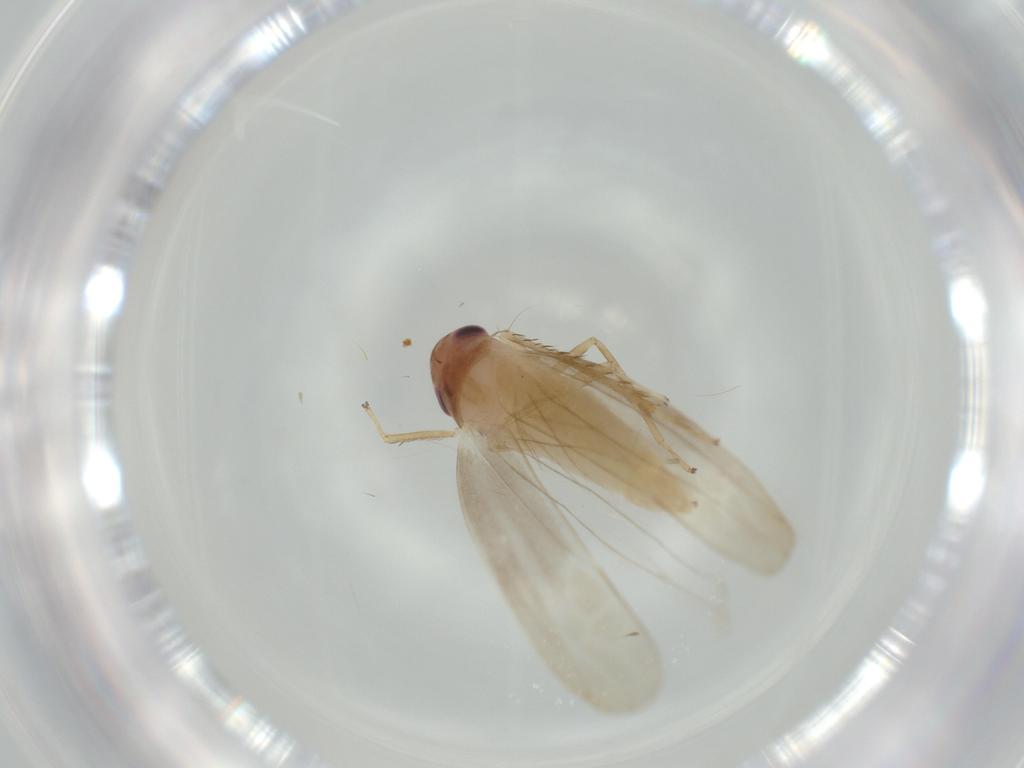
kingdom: Animalia
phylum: Arthropoda
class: Insecta
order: Hemiptera
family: Cicadellidae
